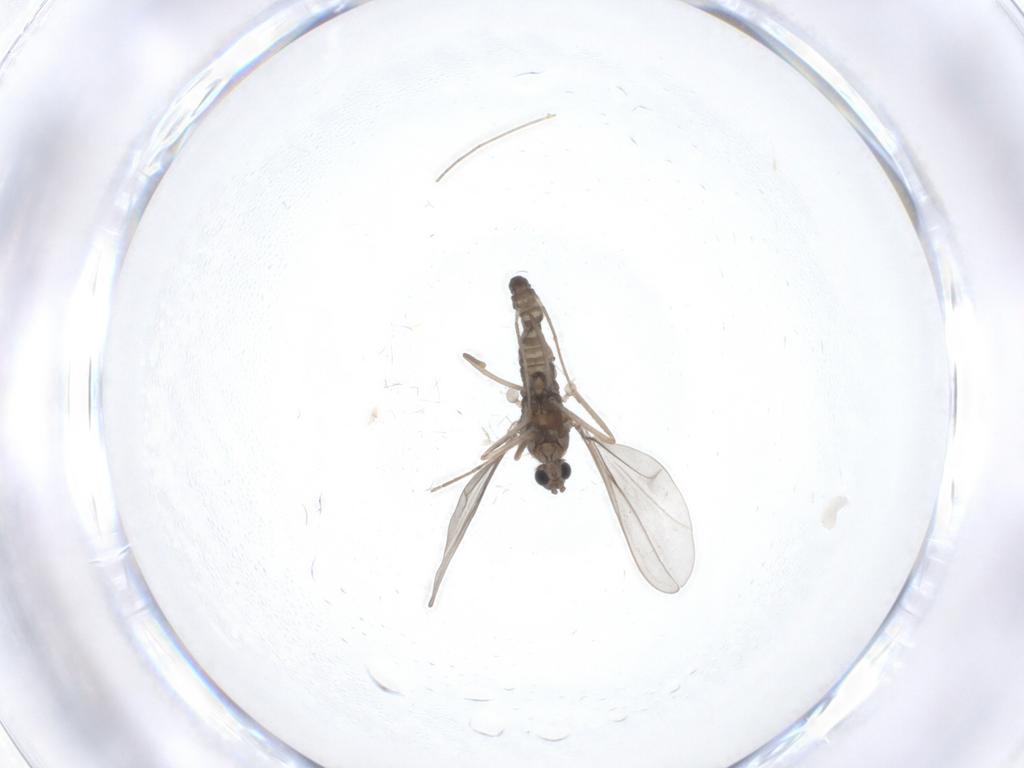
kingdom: Animalia
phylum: Arthropoda
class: Insecta
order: Diptera
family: Cecidomyiidae
